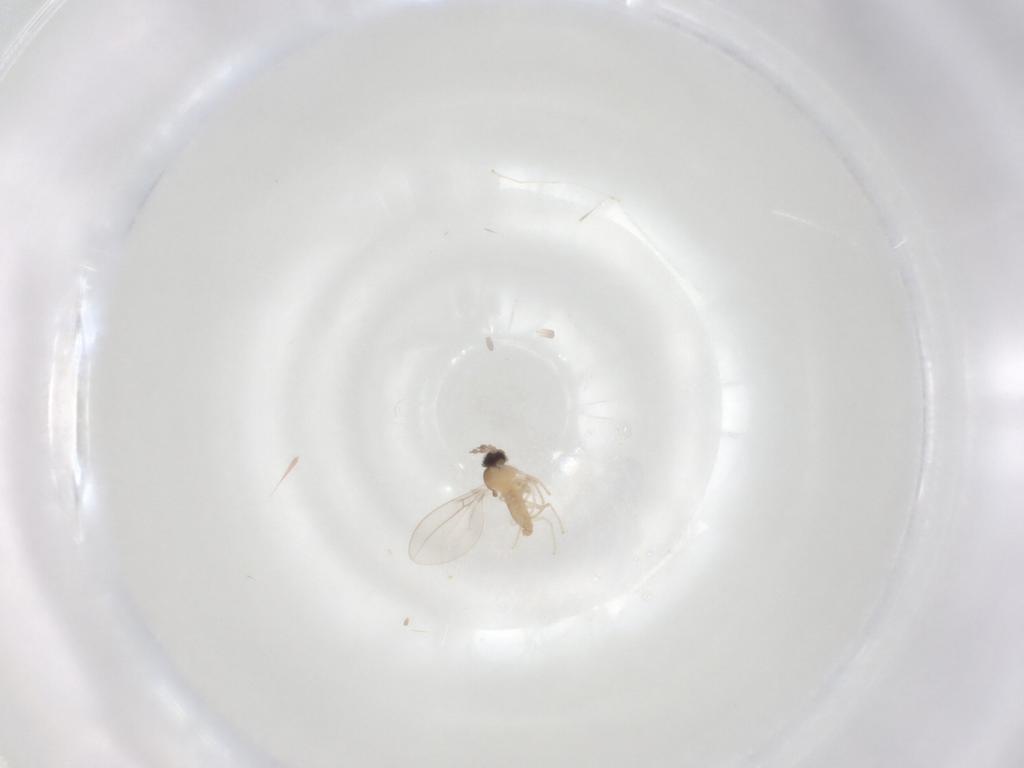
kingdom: Animalia
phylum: Arthropoda
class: Insecta
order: Diptera
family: Cecidomyiidae
